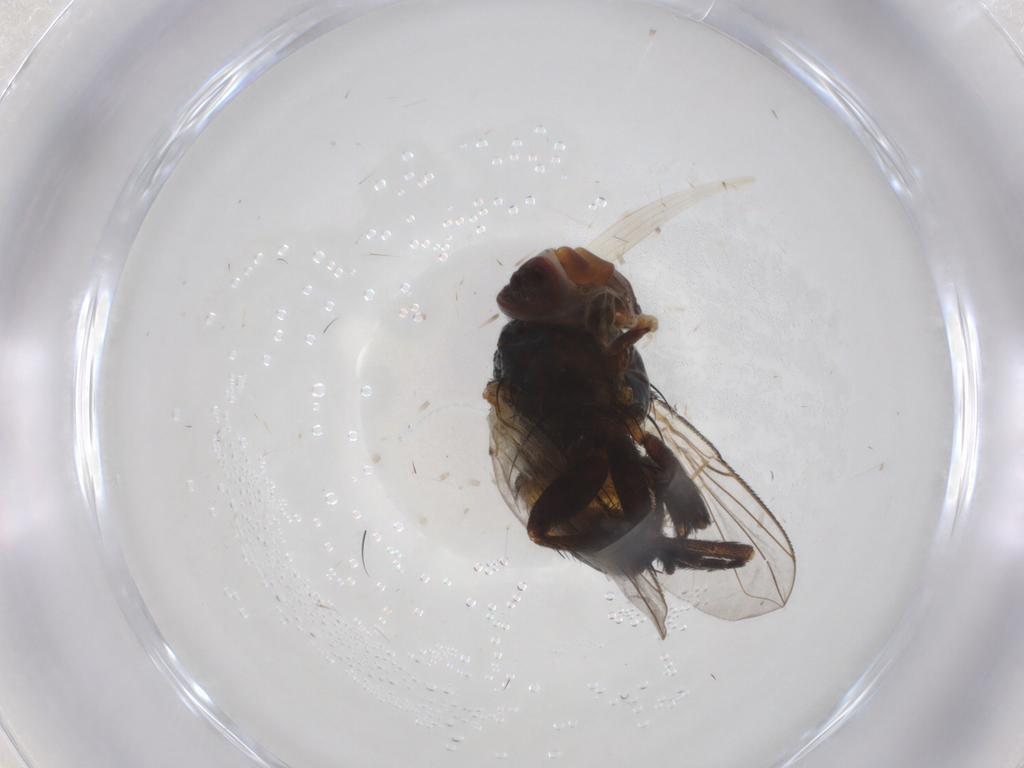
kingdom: Animalia
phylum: Arthropoda
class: Insecta
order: Diptera
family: Muscidae
